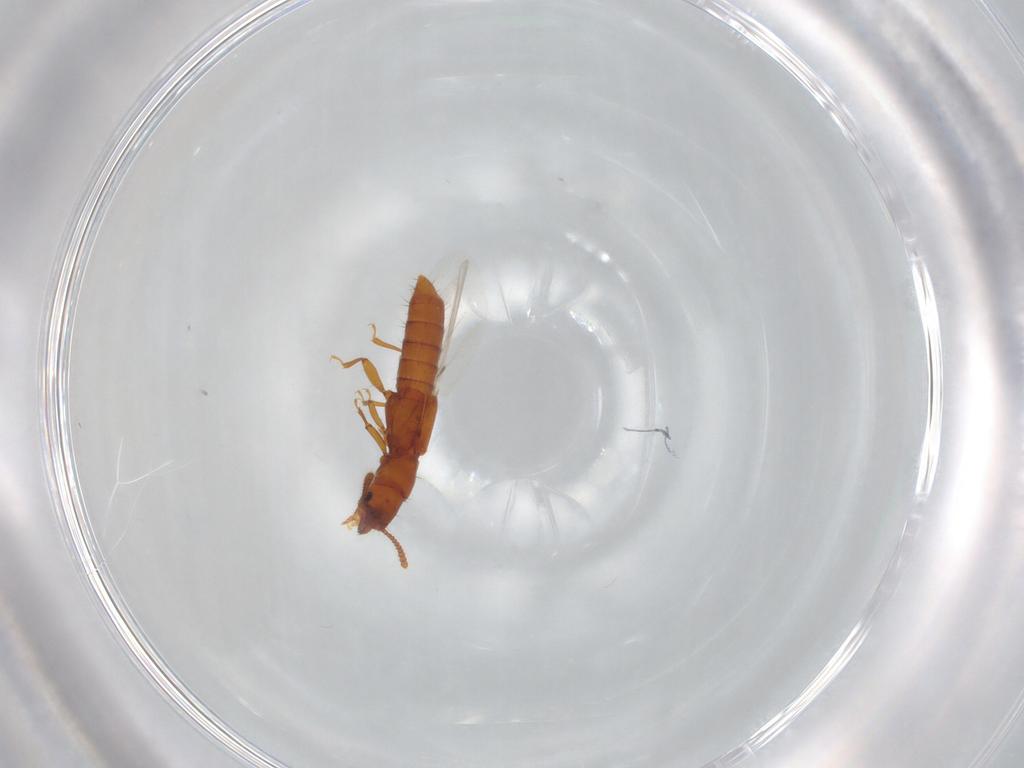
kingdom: Animalia
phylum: Arthropoda
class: Insecta
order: Coleoptera
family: Staphylinidae
